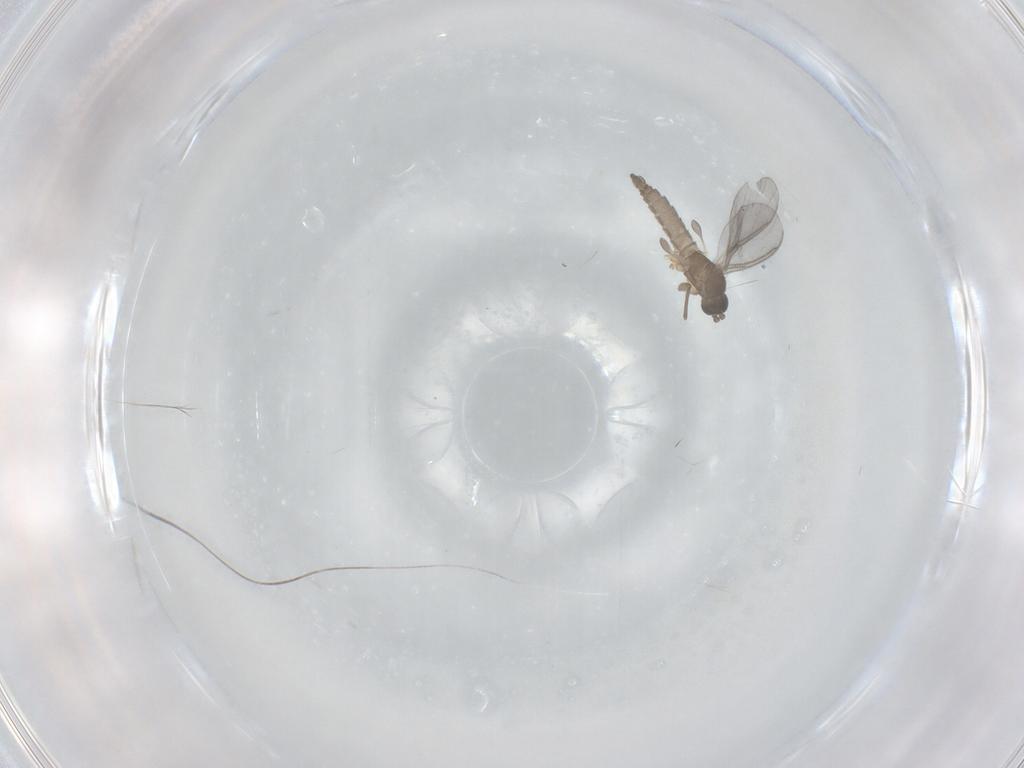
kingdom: Animalia
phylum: Arthropoda
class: Insecta
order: Diptera
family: Sciaridae
